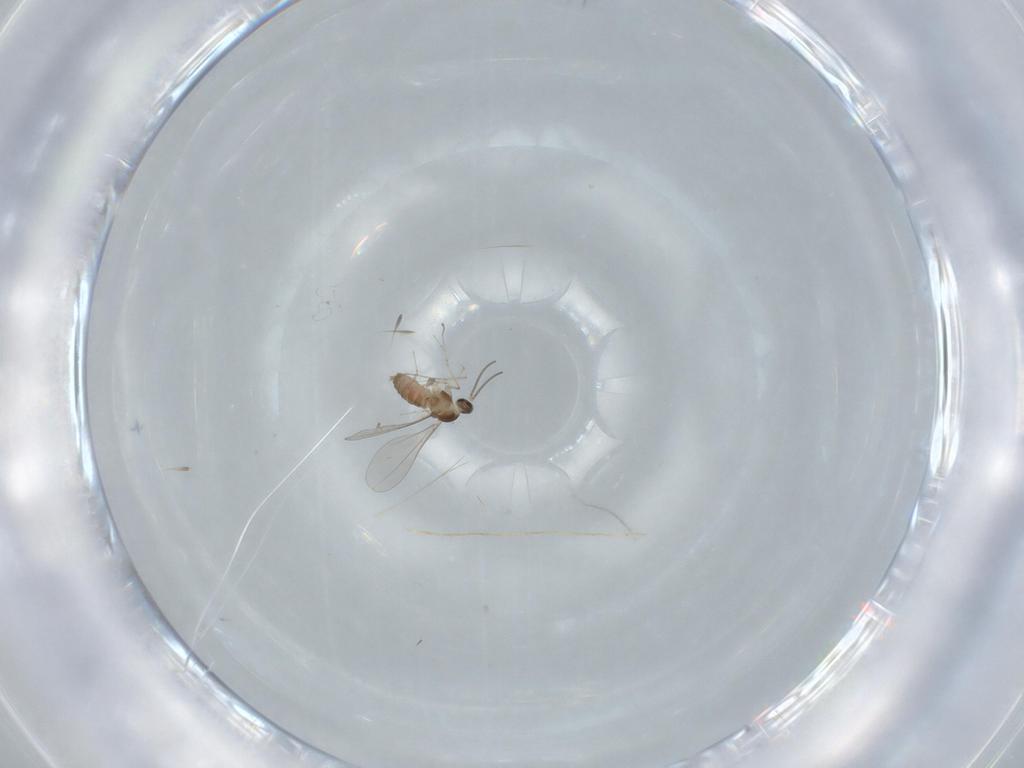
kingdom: Animalia
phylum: Arthropoda
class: Insecta
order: Diptera
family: Cecidomyiidae
